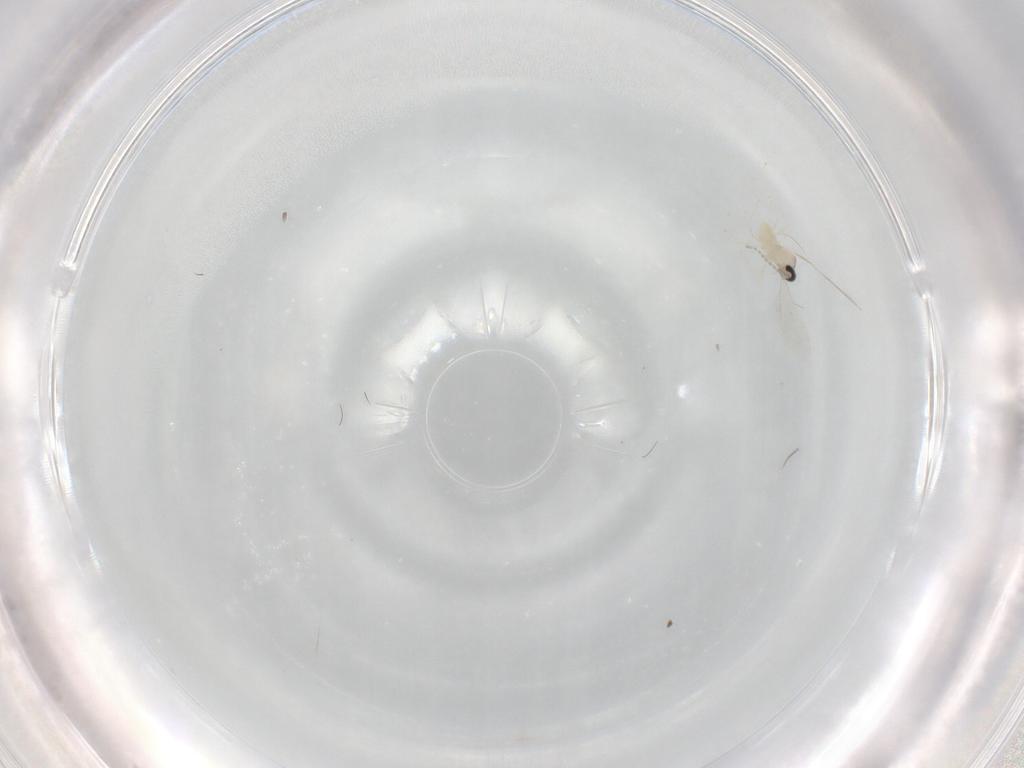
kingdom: Animalia
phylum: Arthropoda
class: Insecta
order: Diptera
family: Cecidomyiidae
